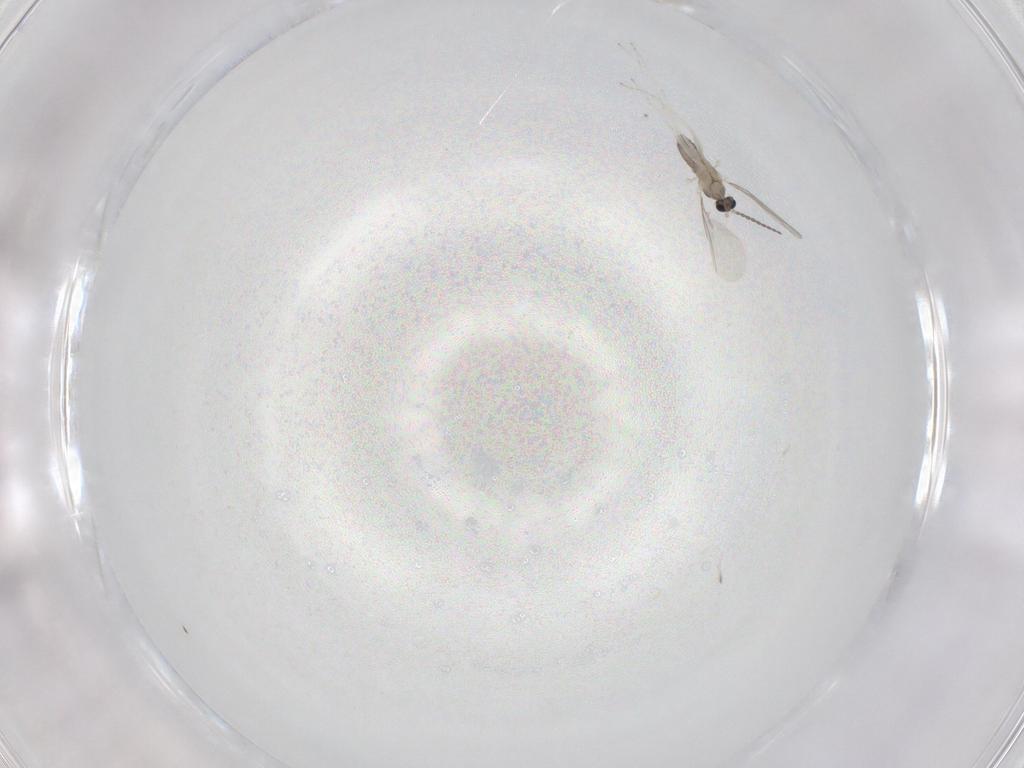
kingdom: Animalia
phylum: Arthropoda
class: Insecta
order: Diptera
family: Cecidomyiidae
